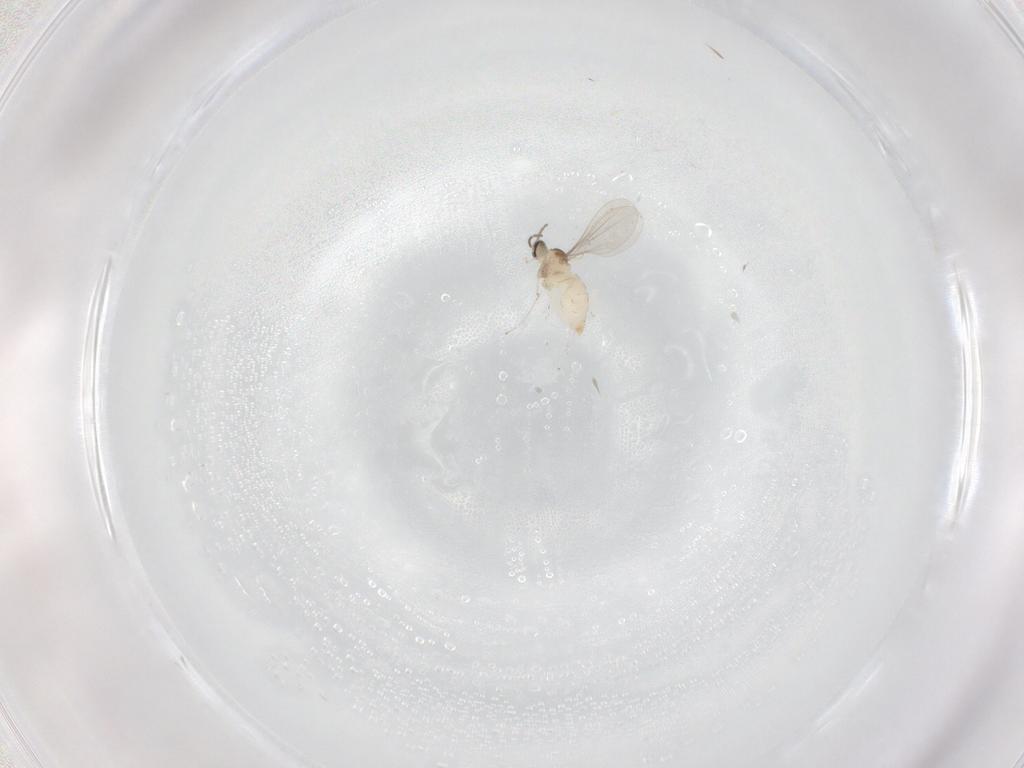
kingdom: Animalia
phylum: Arthropoda
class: Insecta
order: Diptera
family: Cecidomyiidae
